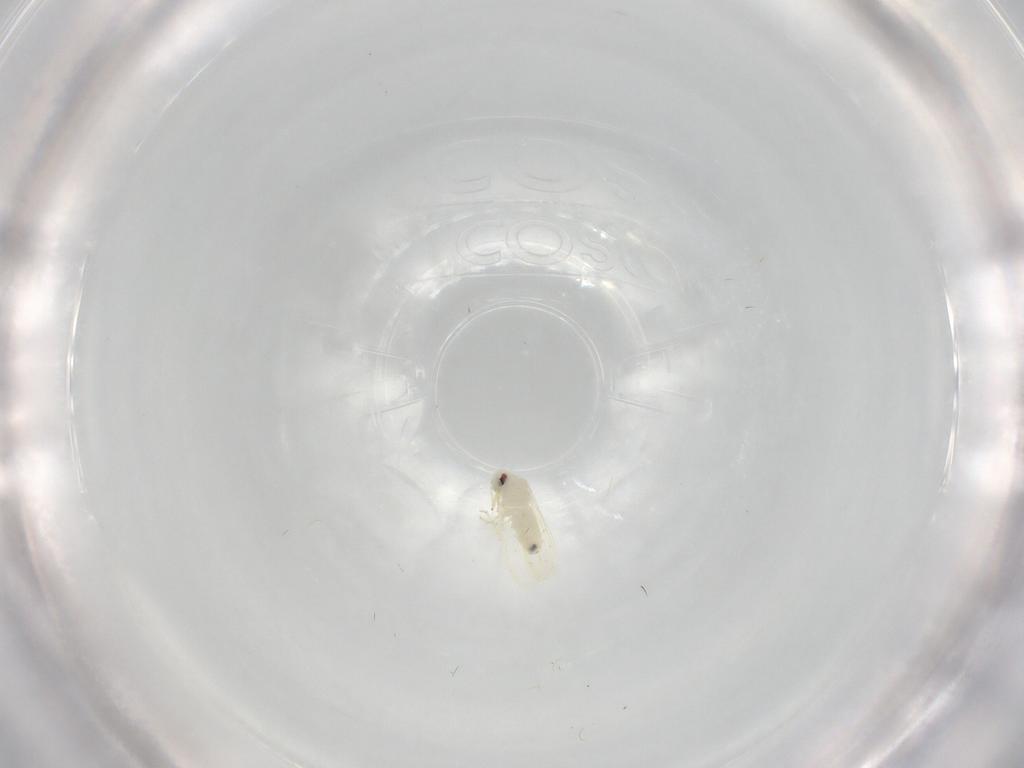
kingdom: Animalia
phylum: Arthropoda
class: Insecta
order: Hemiptera
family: Aleyrodidae
